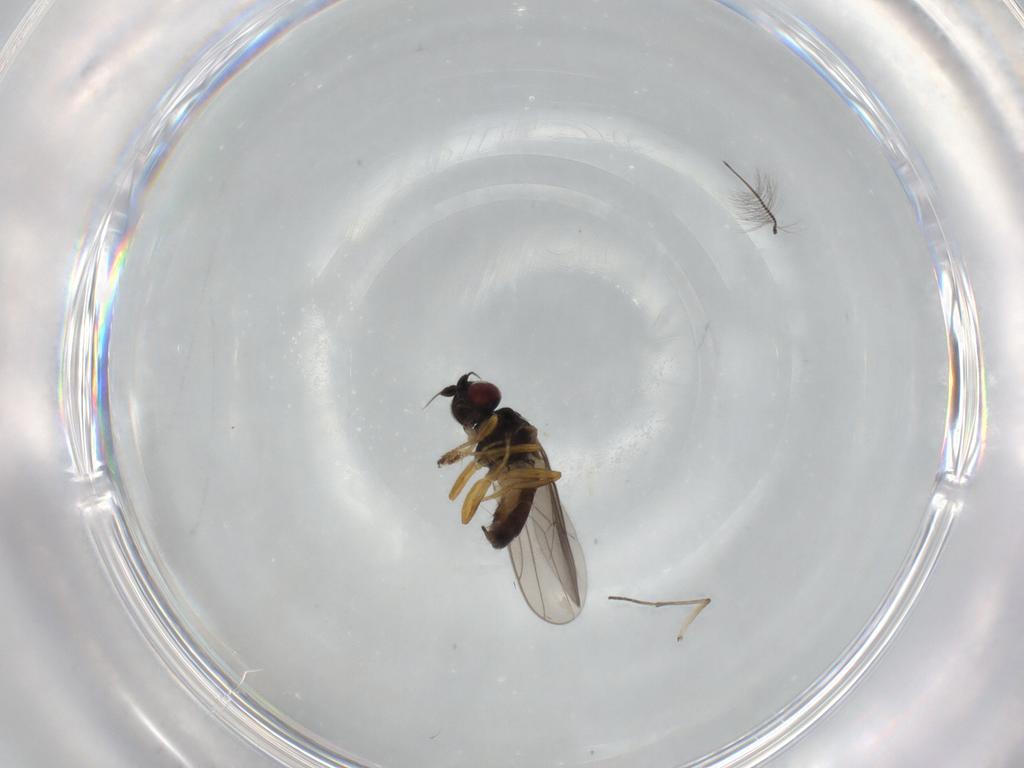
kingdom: Animalia
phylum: Arthropoda
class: Insecta
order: Diptera
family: Chloropidae
